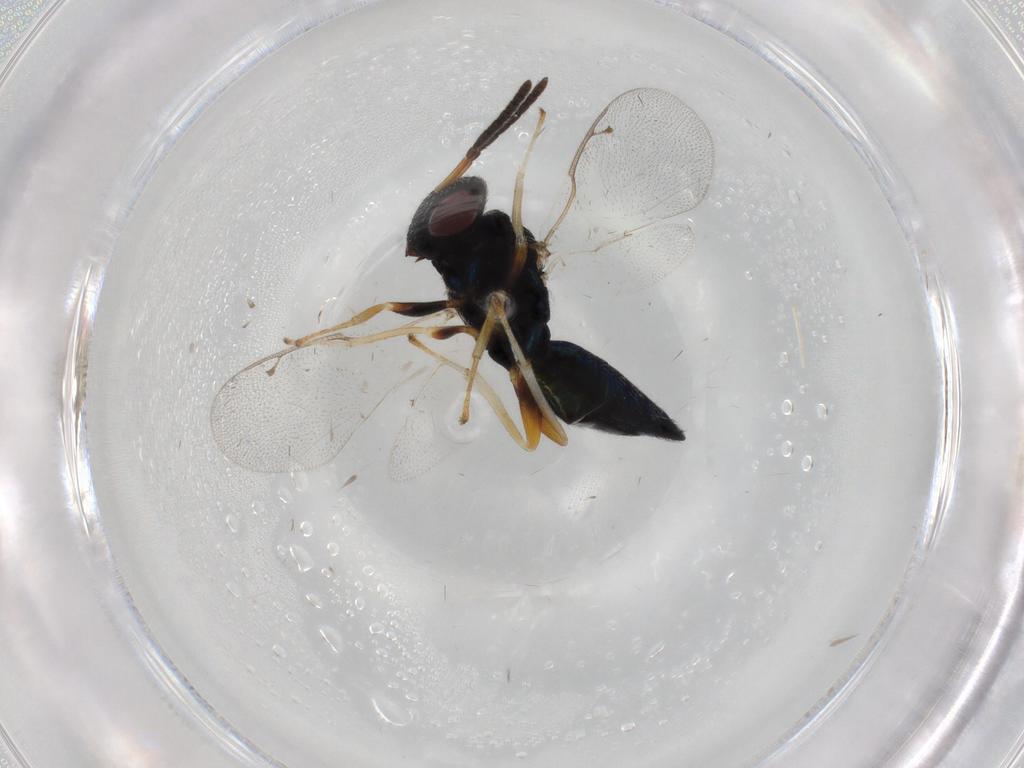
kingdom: Animalia
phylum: Arthropoda
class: Insecta
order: Hymenoptera
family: Pteromalidae
